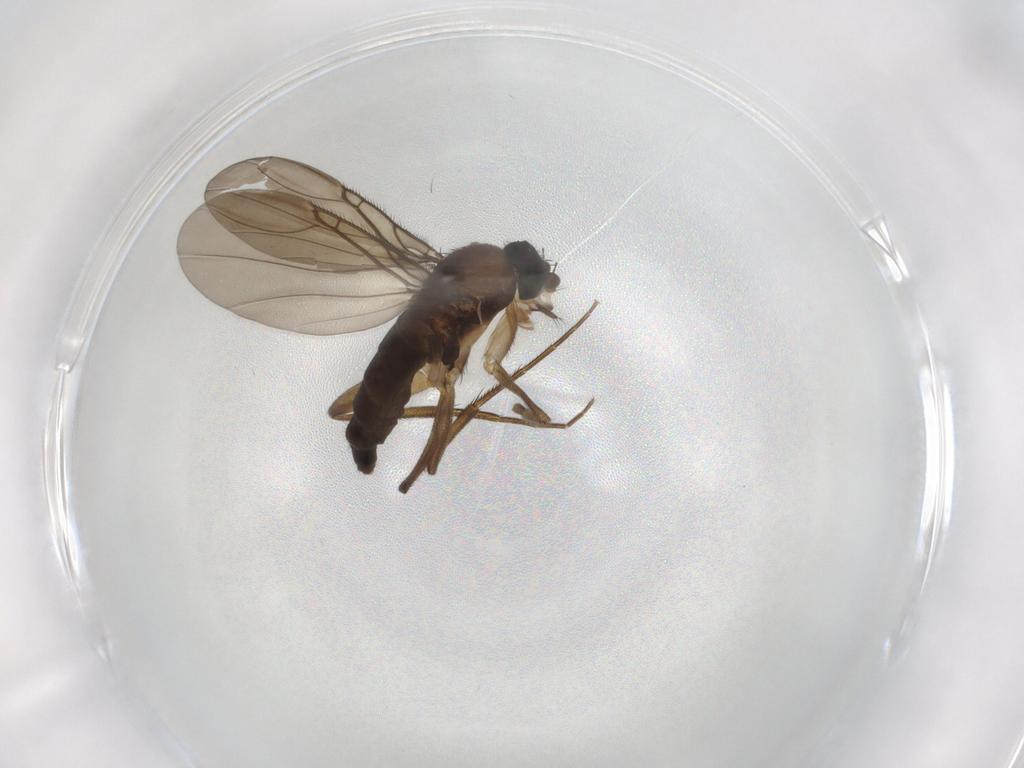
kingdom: Animalia
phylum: Arthropoda
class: Insecta
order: Diptera
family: Phoridae
